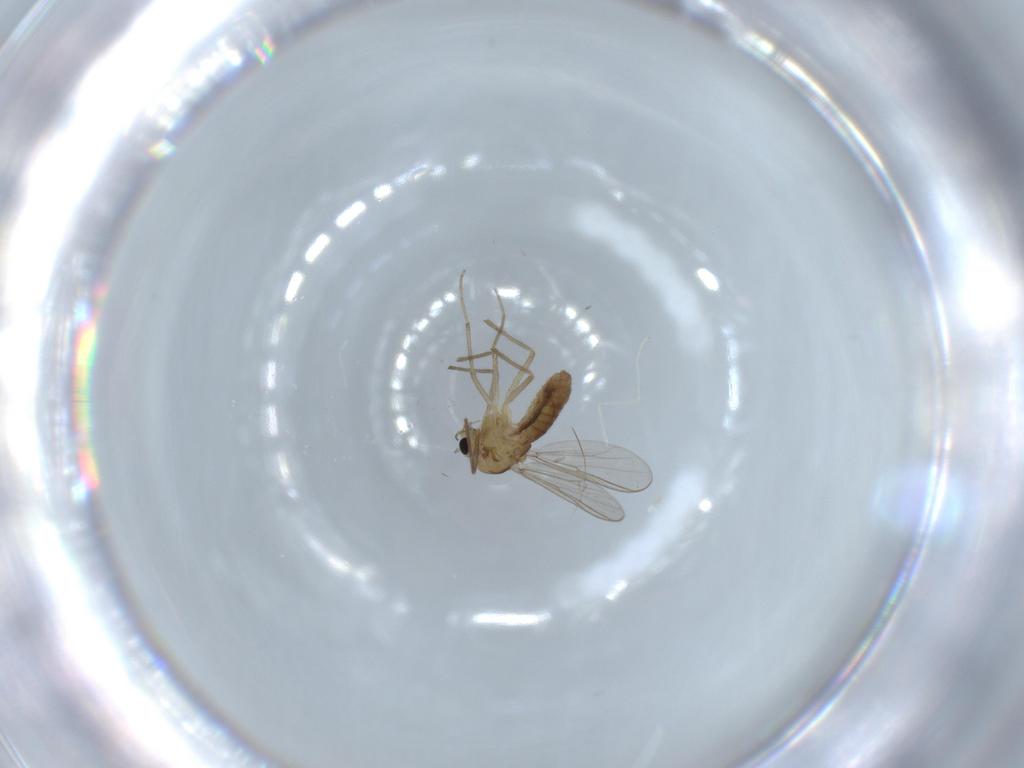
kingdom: Animalia
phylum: Arthropoda
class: Insecta
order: Diptera
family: Chironomidae
